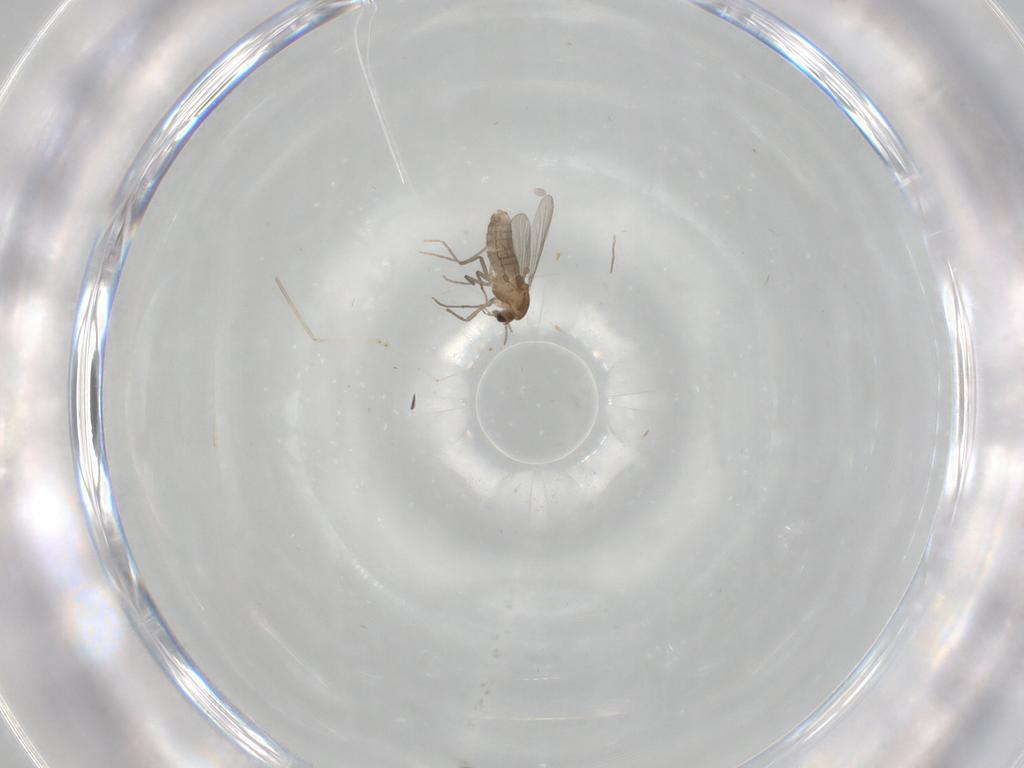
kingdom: Animalia
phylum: Arthropoda
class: Insecta
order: Diptera
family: Chironomidae
